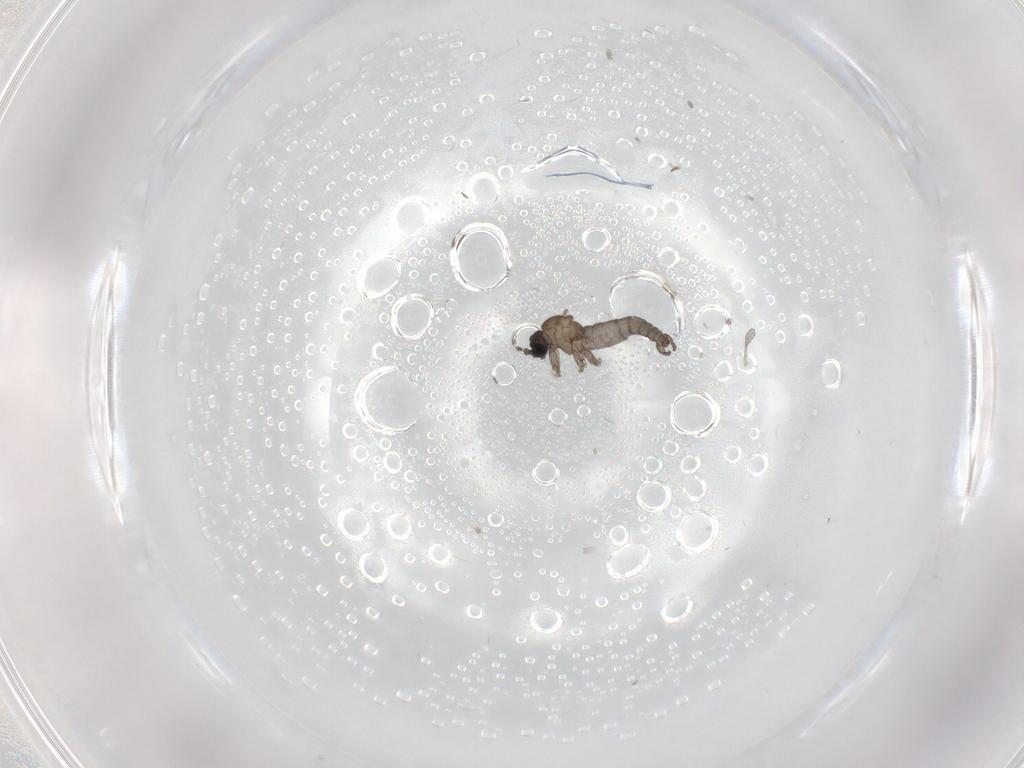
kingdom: Animalia
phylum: Arthropoda
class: Insecta
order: Diptera
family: Sciaridae
